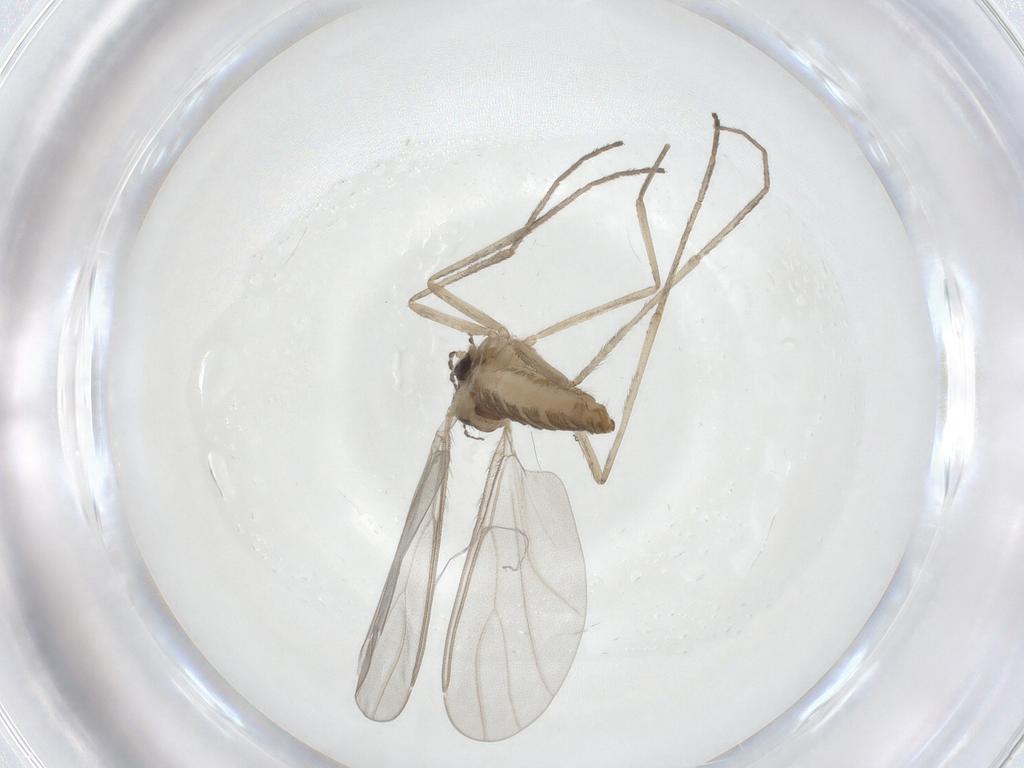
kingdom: Animalia
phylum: Arthropoda
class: Insecta
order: Diptera
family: Cecidomyiidae
